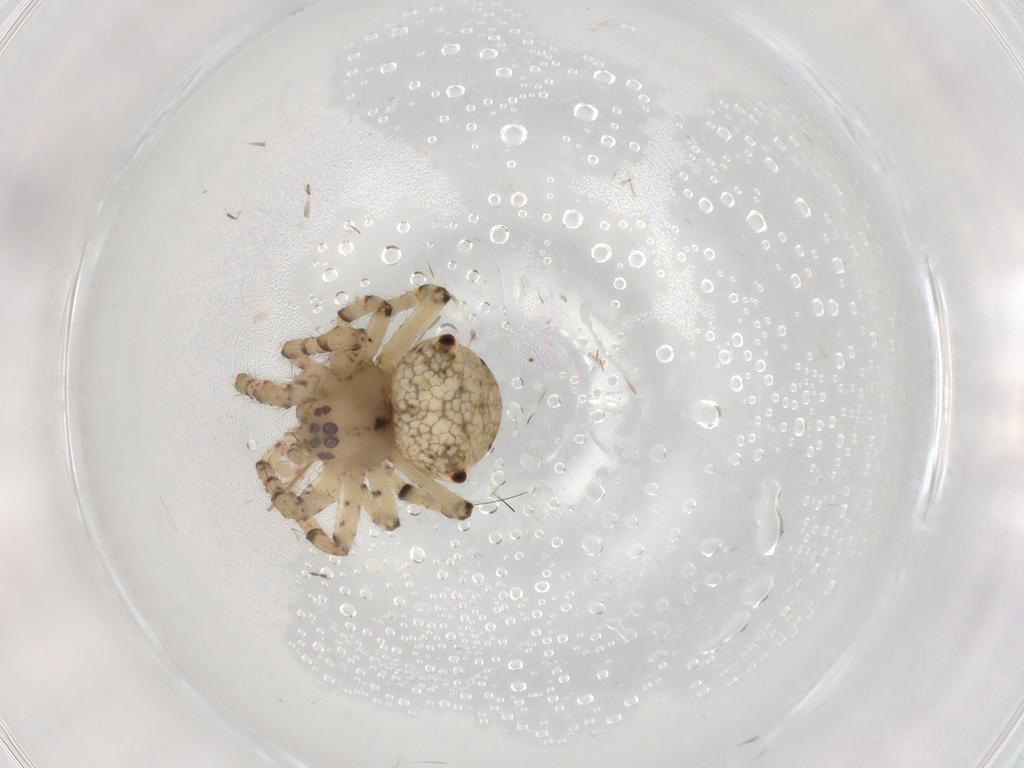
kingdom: Animalia
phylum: Arthropoda
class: Arachnida
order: Araneae
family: Araneidae
